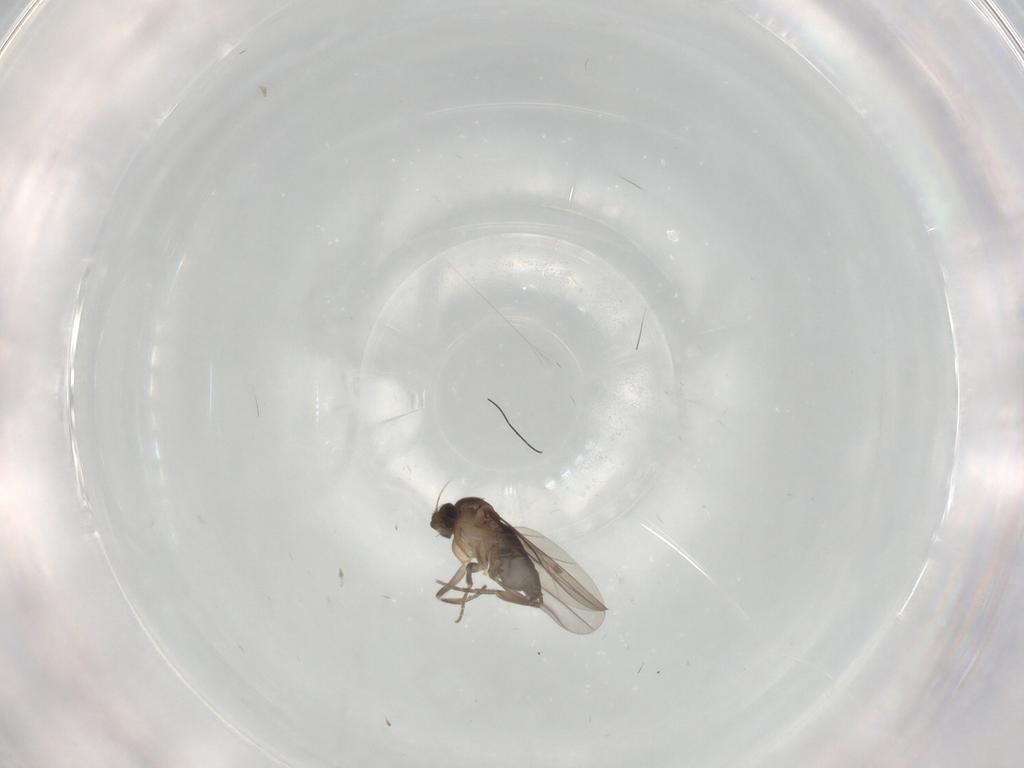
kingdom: Animalia
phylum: Arthropoda
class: Insecta
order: Diptera
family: Phoridae
